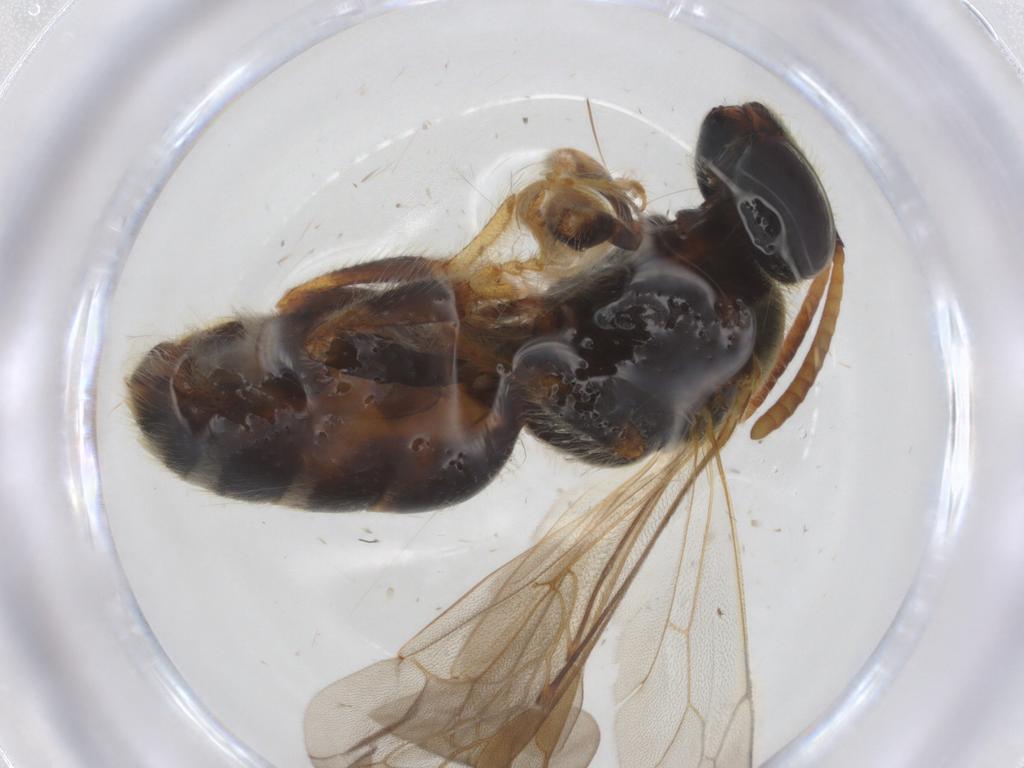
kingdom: Animalia
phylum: Arthropoda
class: Insecta
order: Hymenoptera
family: Halictidae
